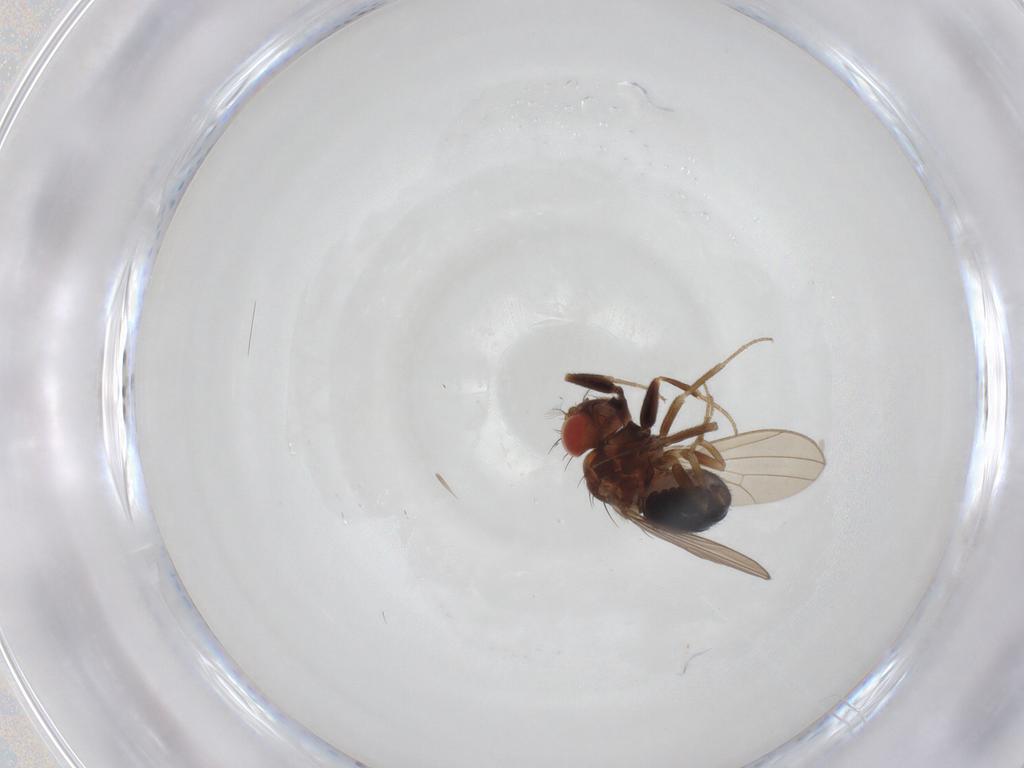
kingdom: Animalia
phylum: Arthropoda
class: Insecta
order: Diptera
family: Drosophilidae
